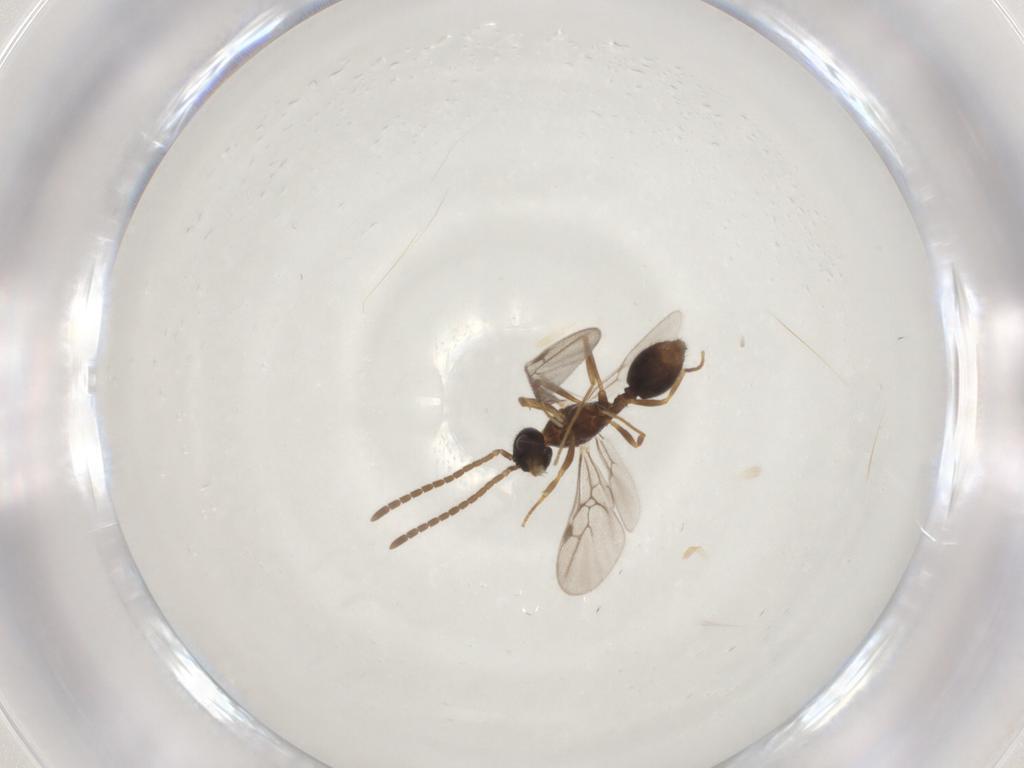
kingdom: Animalia
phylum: Arthropoda
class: Insecta
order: Hymenoptera
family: Formicidae
